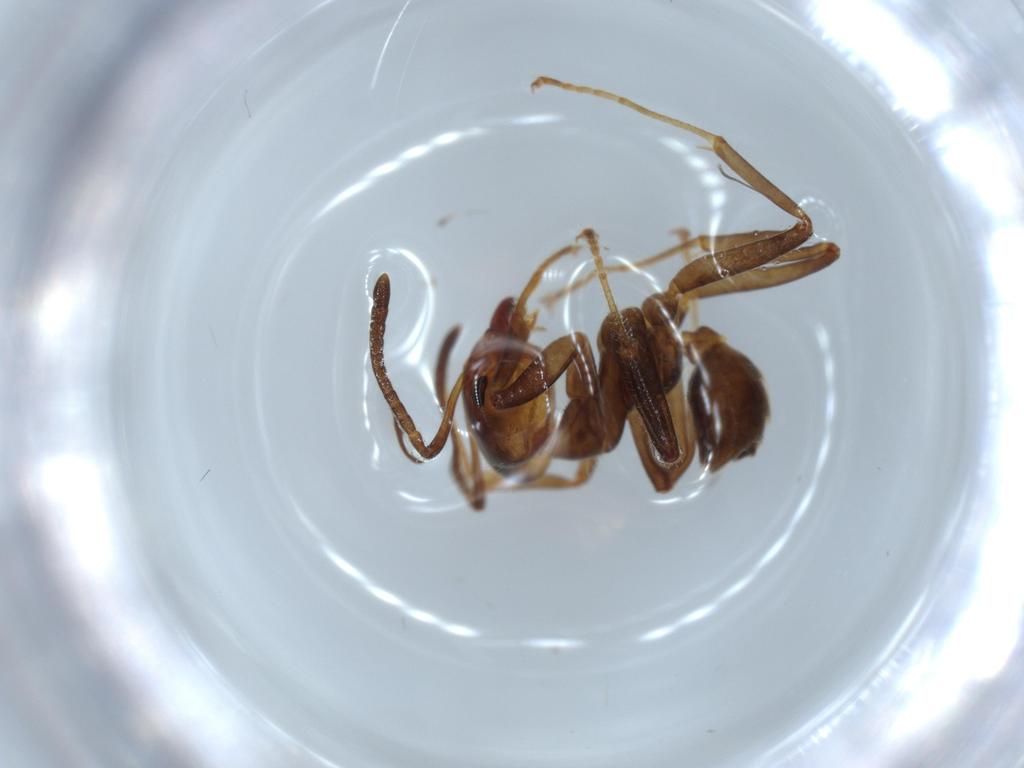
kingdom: Animalia
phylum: Arthropoda
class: Insecta
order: Hymenoptera
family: Formicidae
